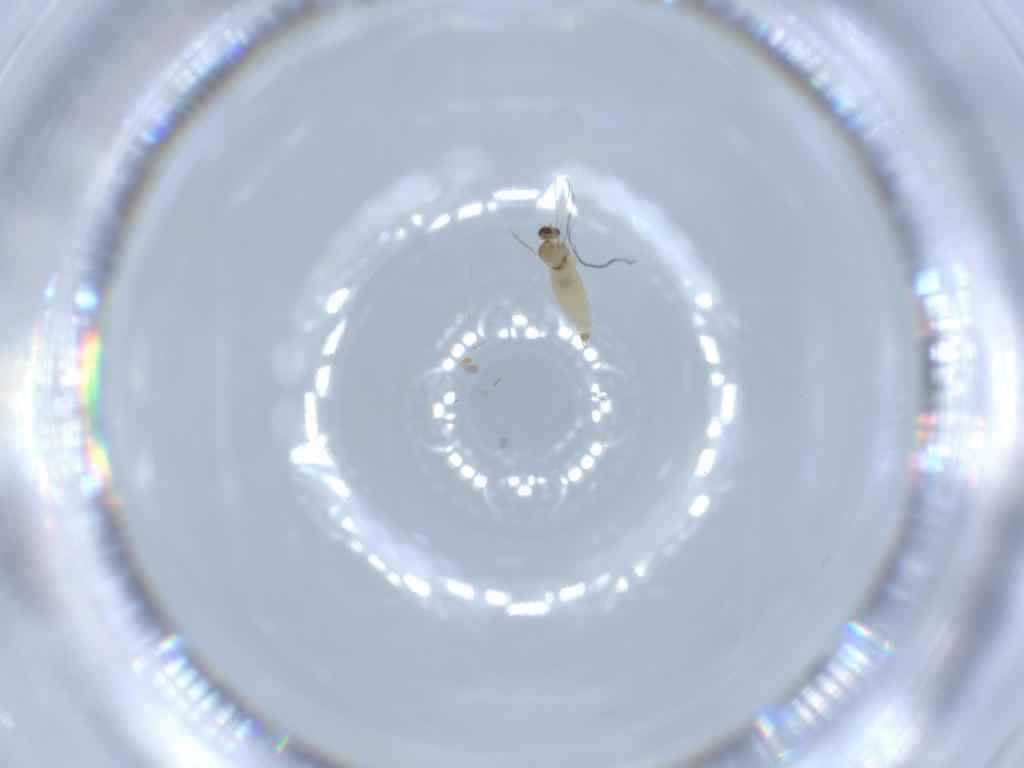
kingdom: Animalia
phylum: Arthropoda
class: Insecta
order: Diptera
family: Cecidomyiidae
